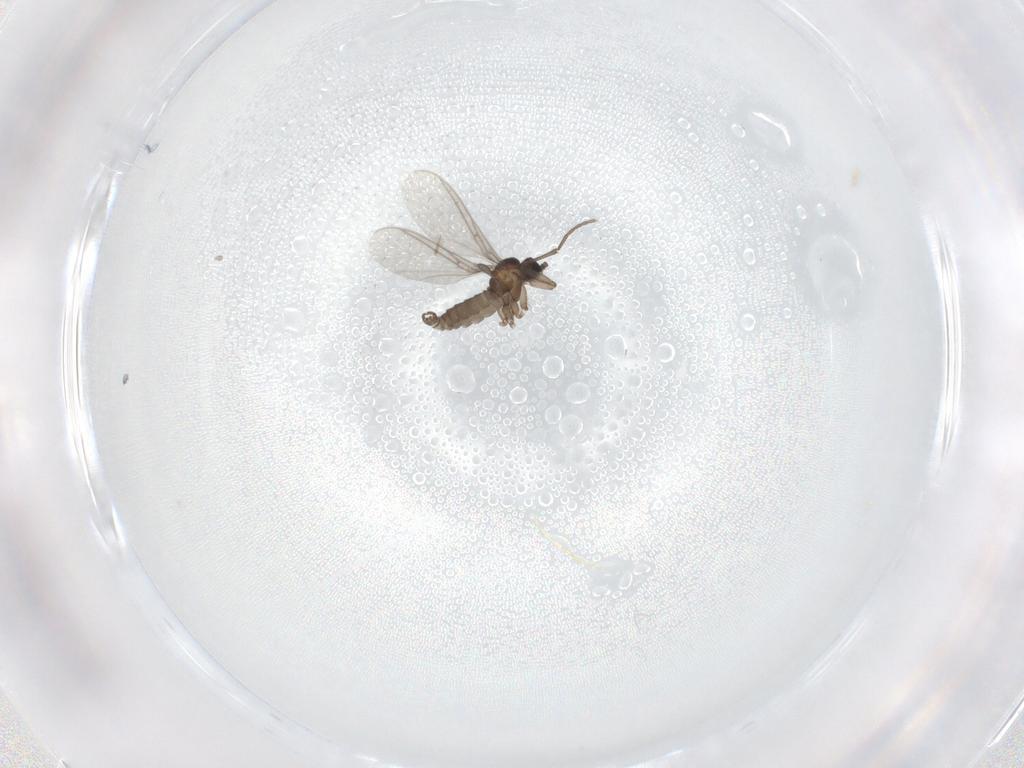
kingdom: Animalia
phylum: Arthropoda
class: Insecta
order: Diptera
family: Sciaridae
